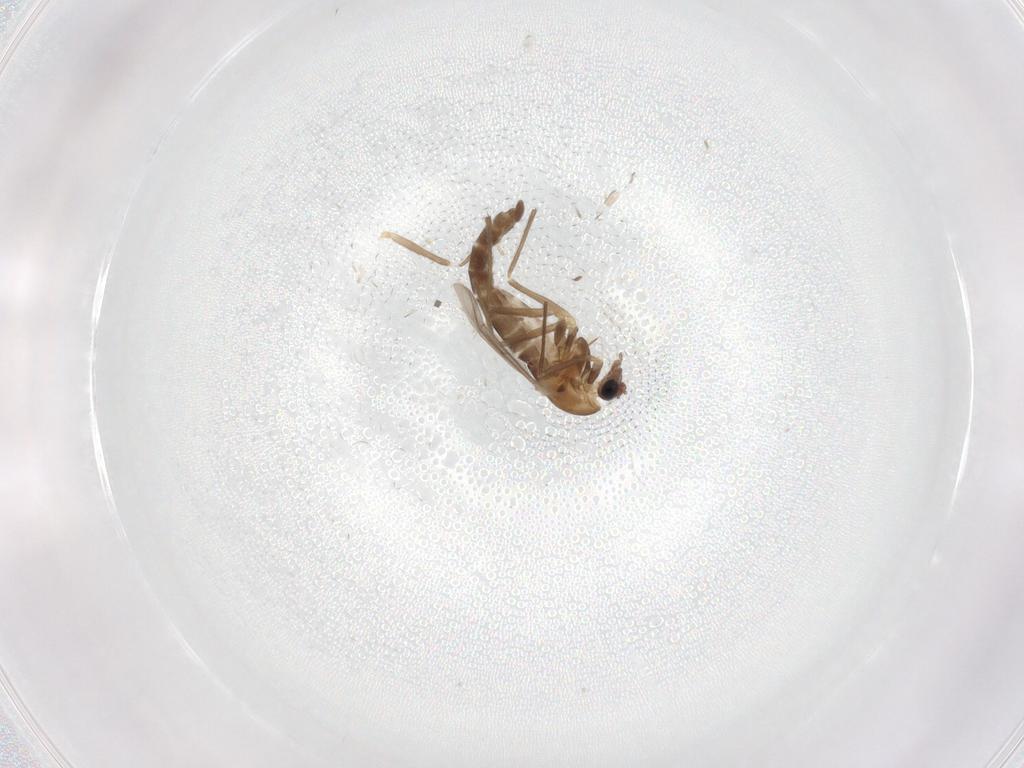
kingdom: Animalia
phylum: Arthropoda
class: Insecta
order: Diptera
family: Chironomidae
